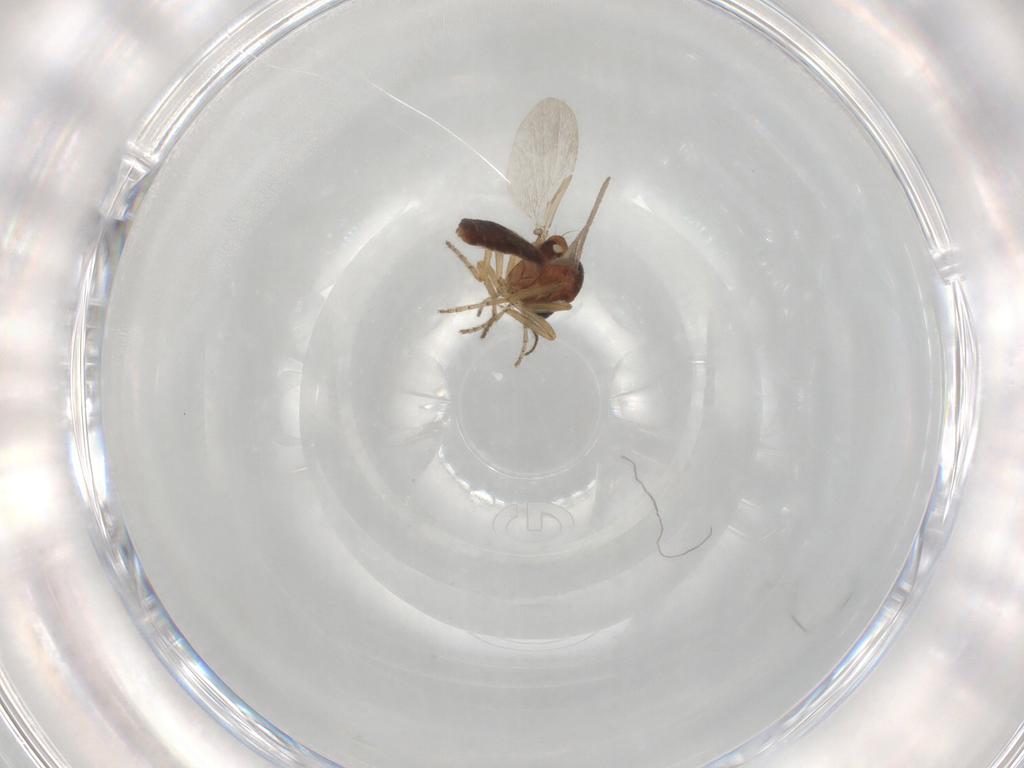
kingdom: Animalia
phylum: Arthropoda
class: Insecta
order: Diptera
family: Ceratopogonidae
